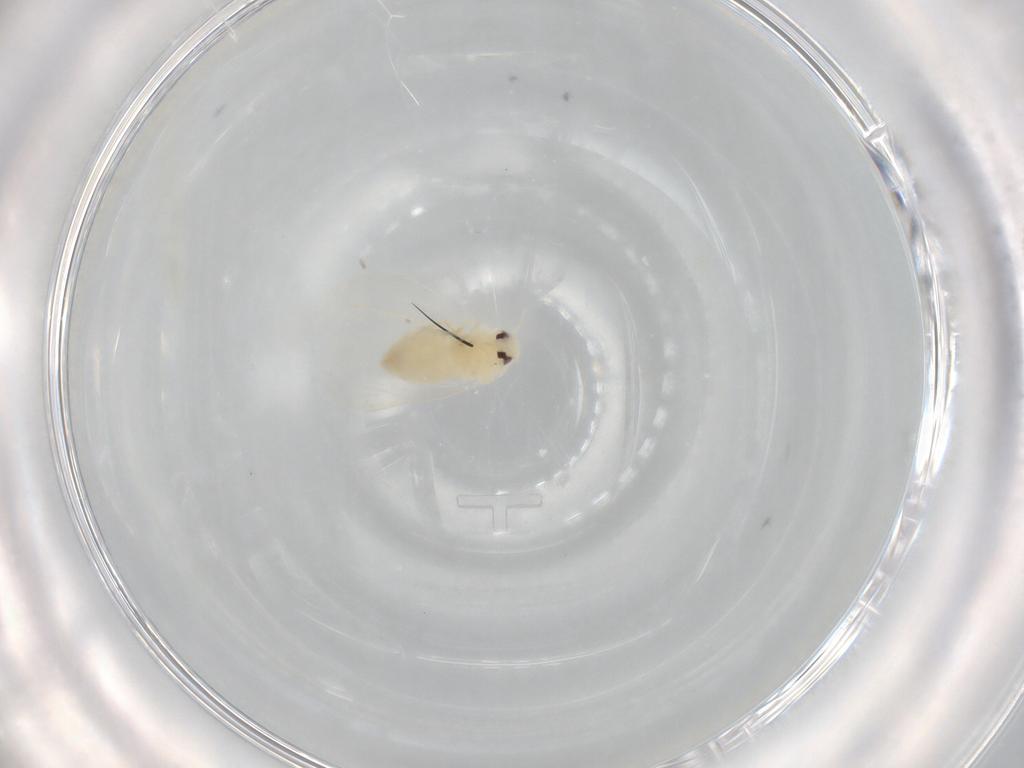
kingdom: Animalia
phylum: Arthropoda
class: Insecta
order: Hemiptera
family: Aleyrodidae
